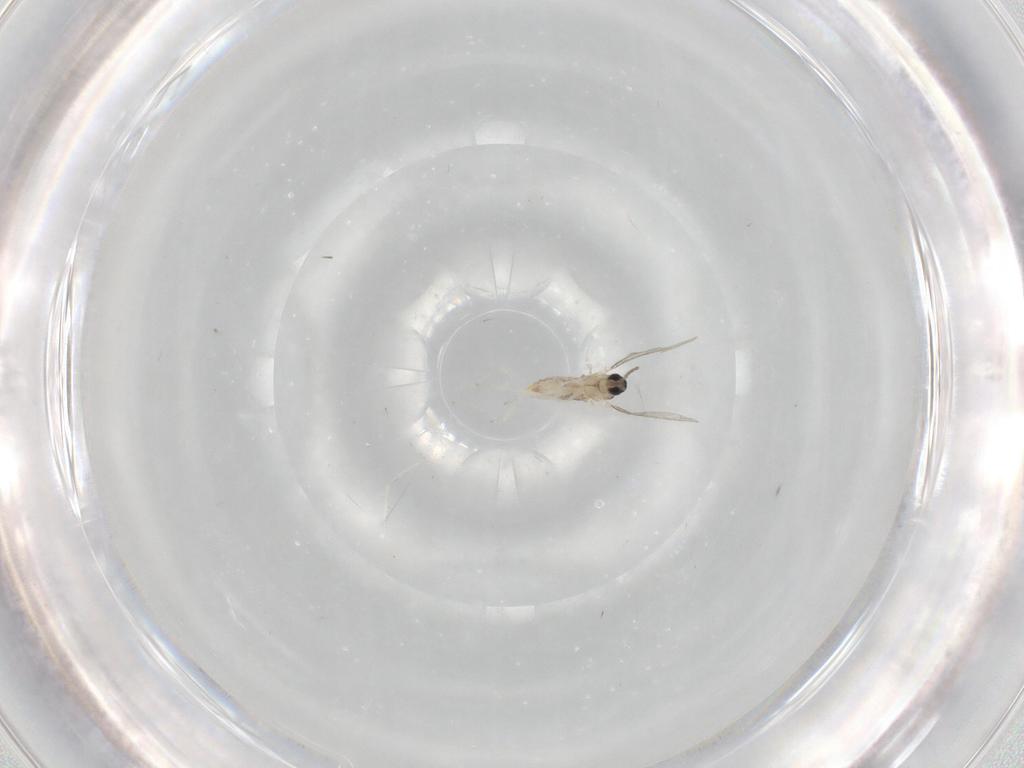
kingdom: Animalia
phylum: Arthropoda
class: Insecta
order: Diptera
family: Cecidomyiidae
